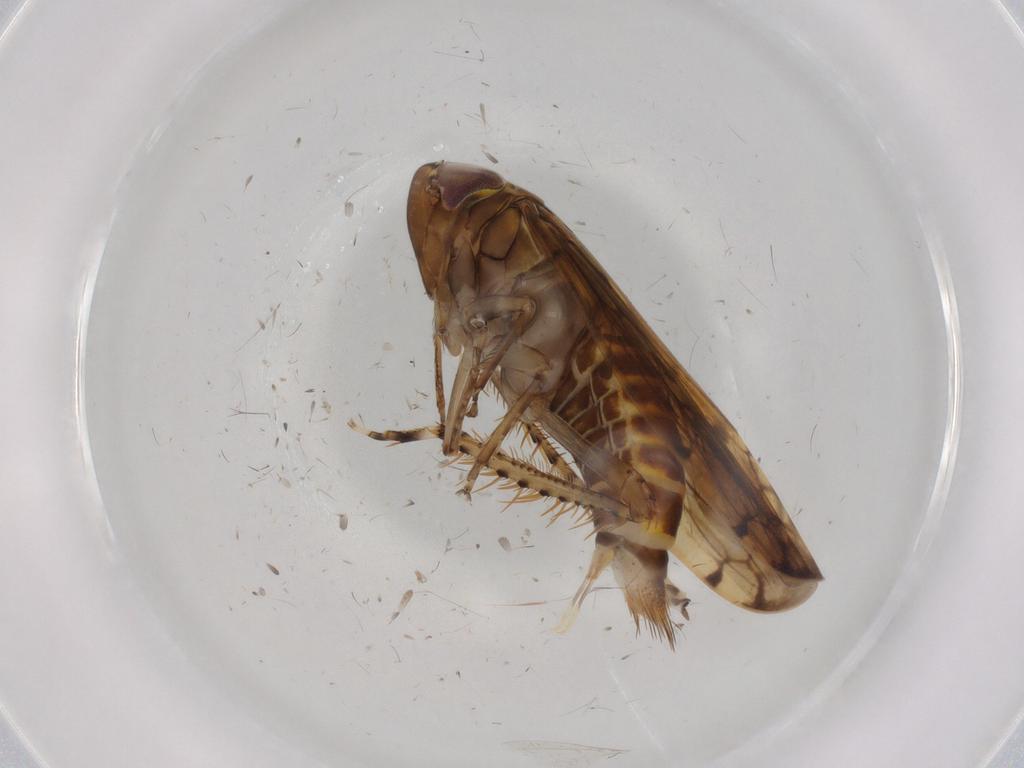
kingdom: Animalia
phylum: Arthropoda
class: Insecta
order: Hemiptera
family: Cicadellidae
